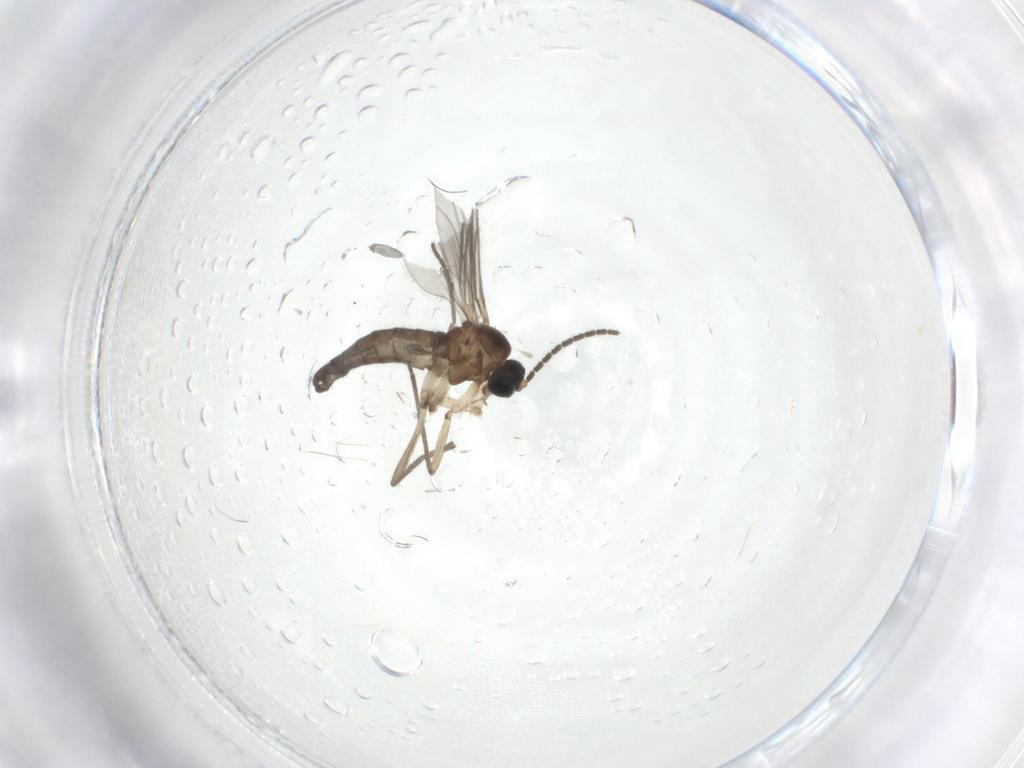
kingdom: Animalia
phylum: Arthropoda
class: Insecta
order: Diptera
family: Sciaridae
